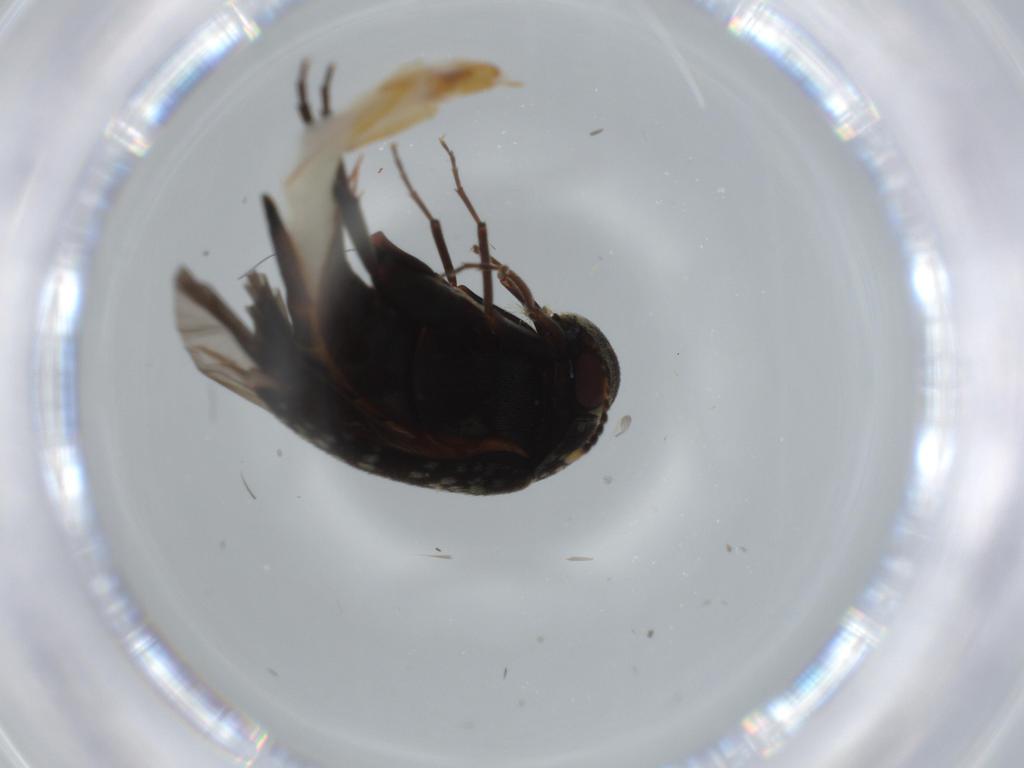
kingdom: Animalia
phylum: Arthropoda
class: Insecta
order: Coleoptera
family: Mordellidae
